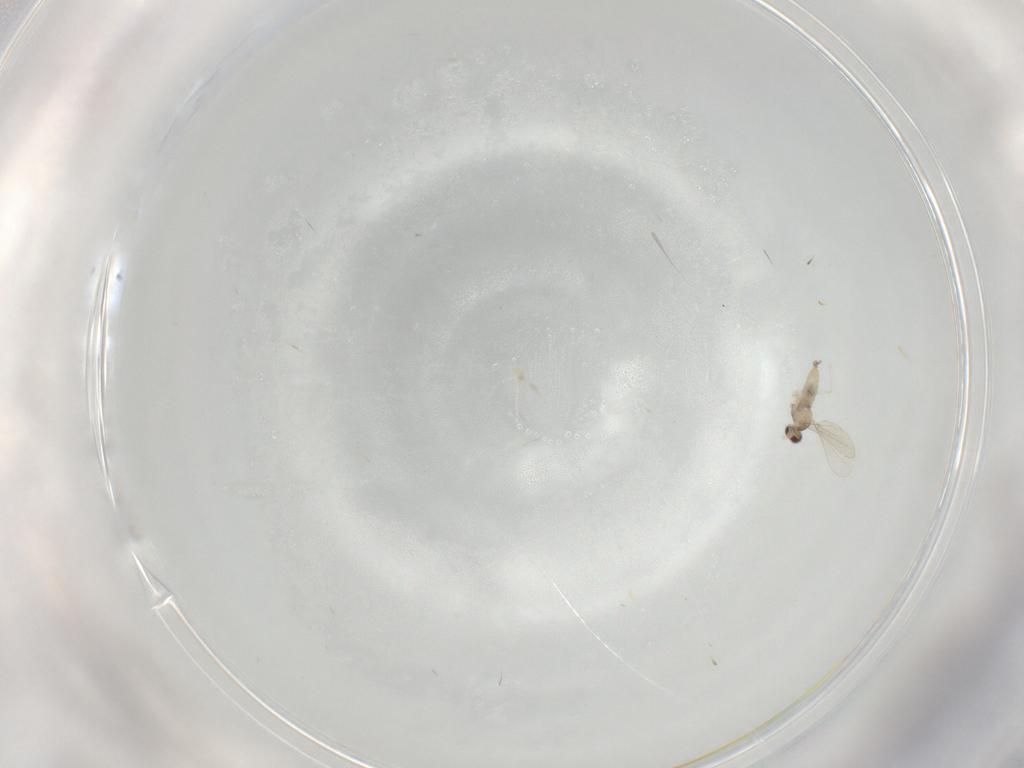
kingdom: Animalia
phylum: Arthropoda
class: Insecta
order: Diptera
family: Cecidomyiidae
